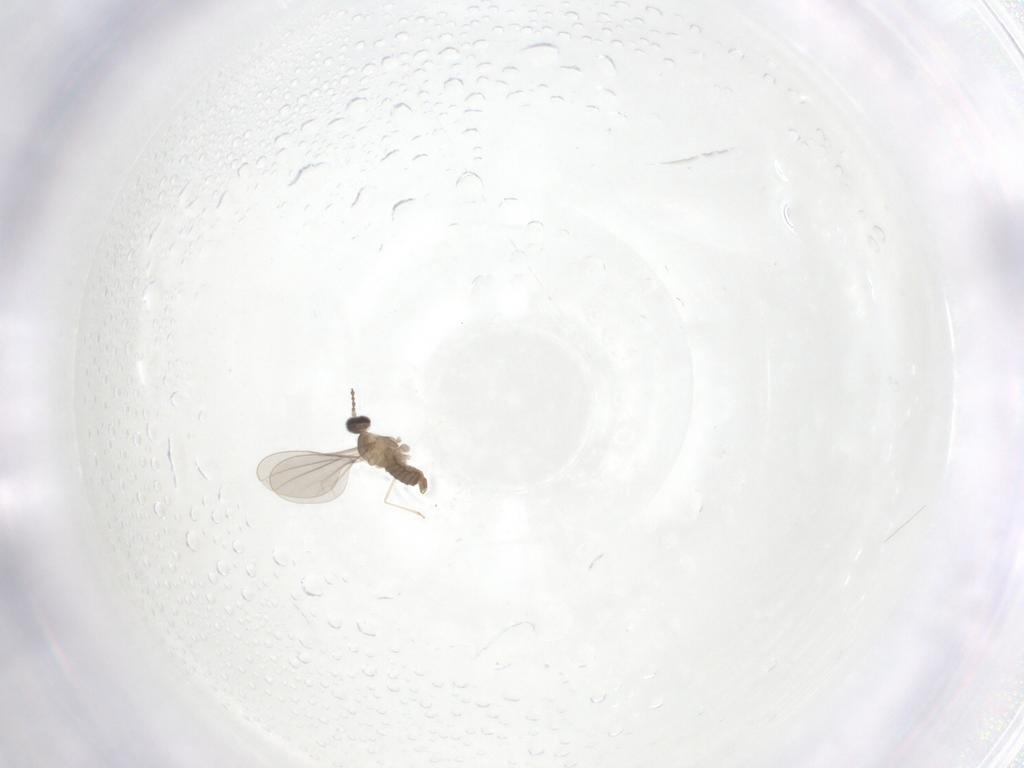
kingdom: Animalia
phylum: Arthropoda
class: Insecta
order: Diptera
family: Cecidomyiidae
